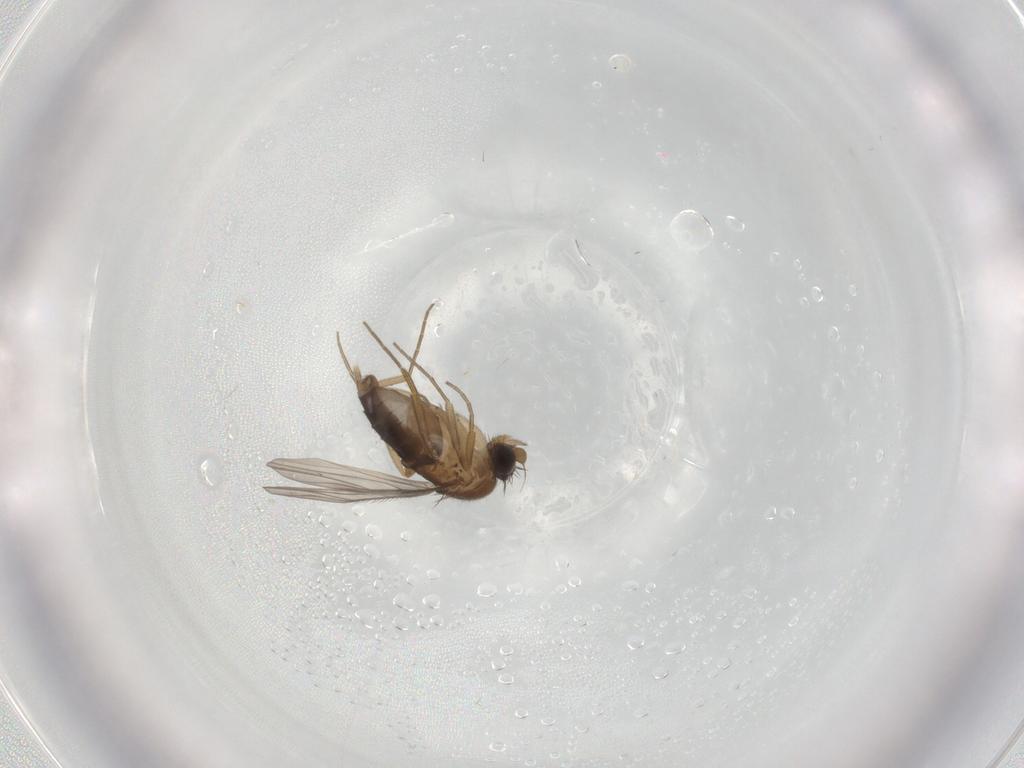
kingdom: Animalia
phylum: Arthropoda
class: Insecta
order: Diptera
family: Phoridae
